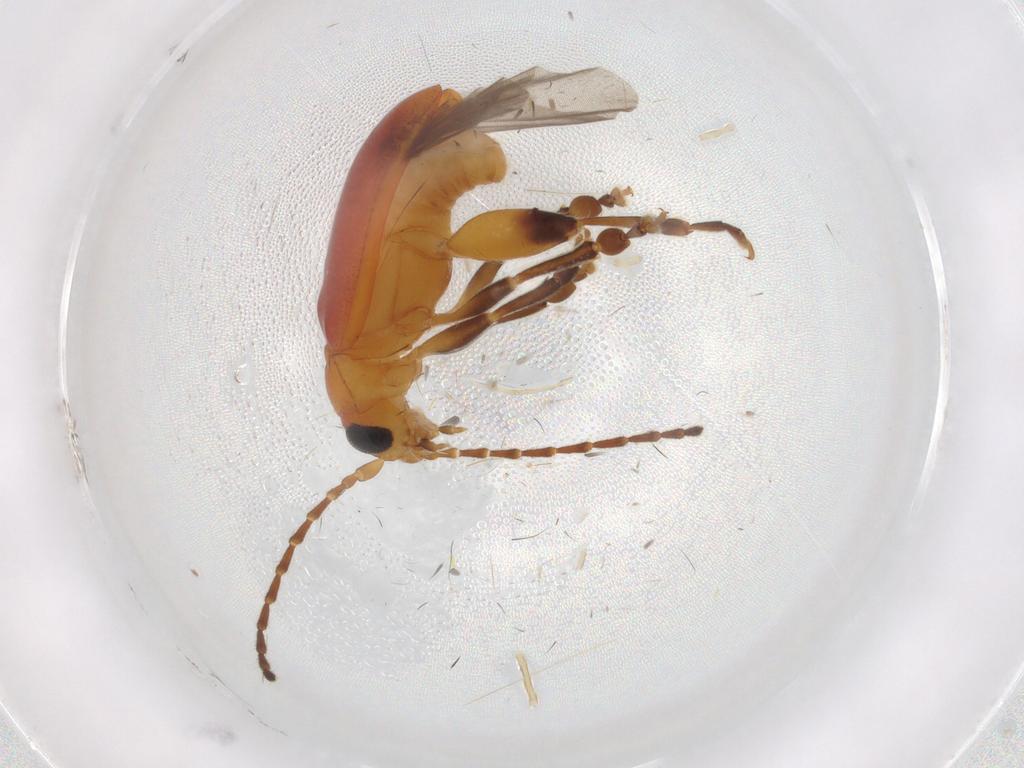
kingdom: Animalia
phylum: Arthropoda
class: Insecta
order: Coleoptera
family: Chrysomelidae
